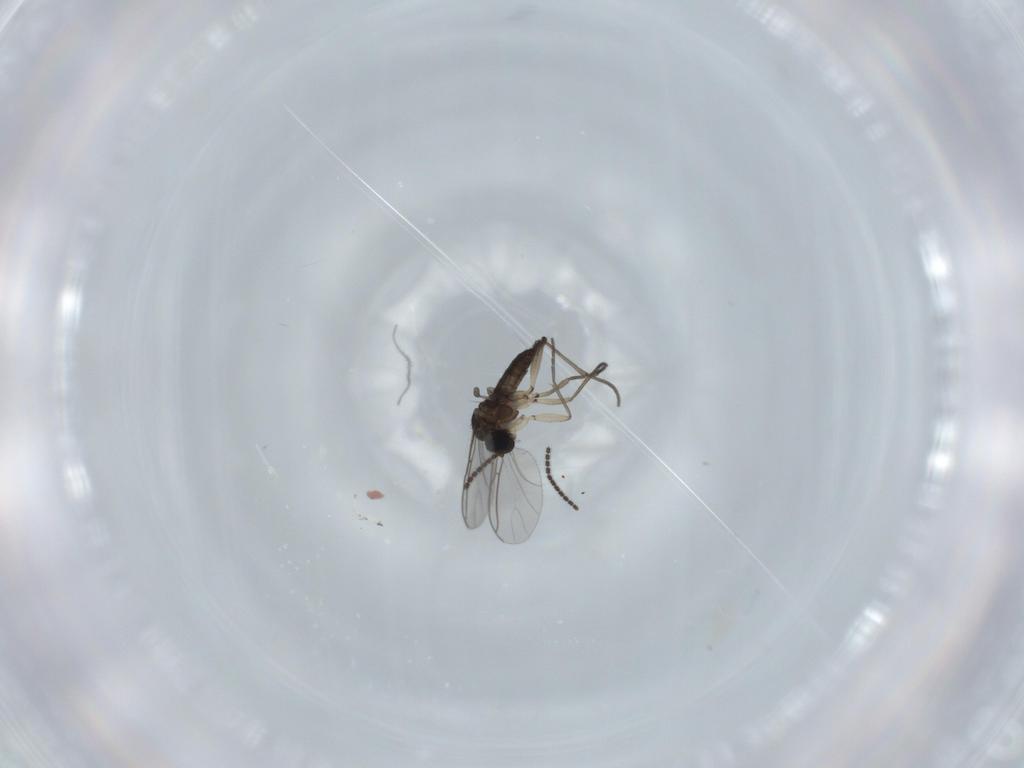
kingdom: Animalia
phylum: Arthropoda
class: Insecta
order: Diptera
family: Sciaridae
